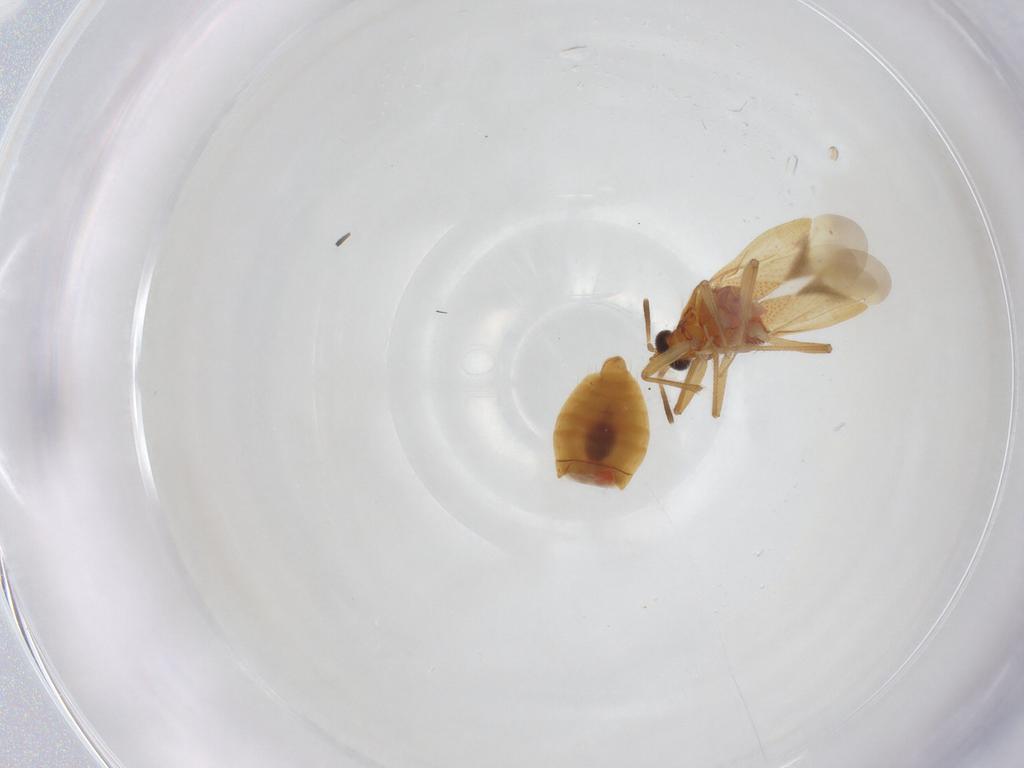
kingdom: Animalia
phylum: Arthropoda
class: Insecta
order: Hemiptera
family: Anthocoridae
